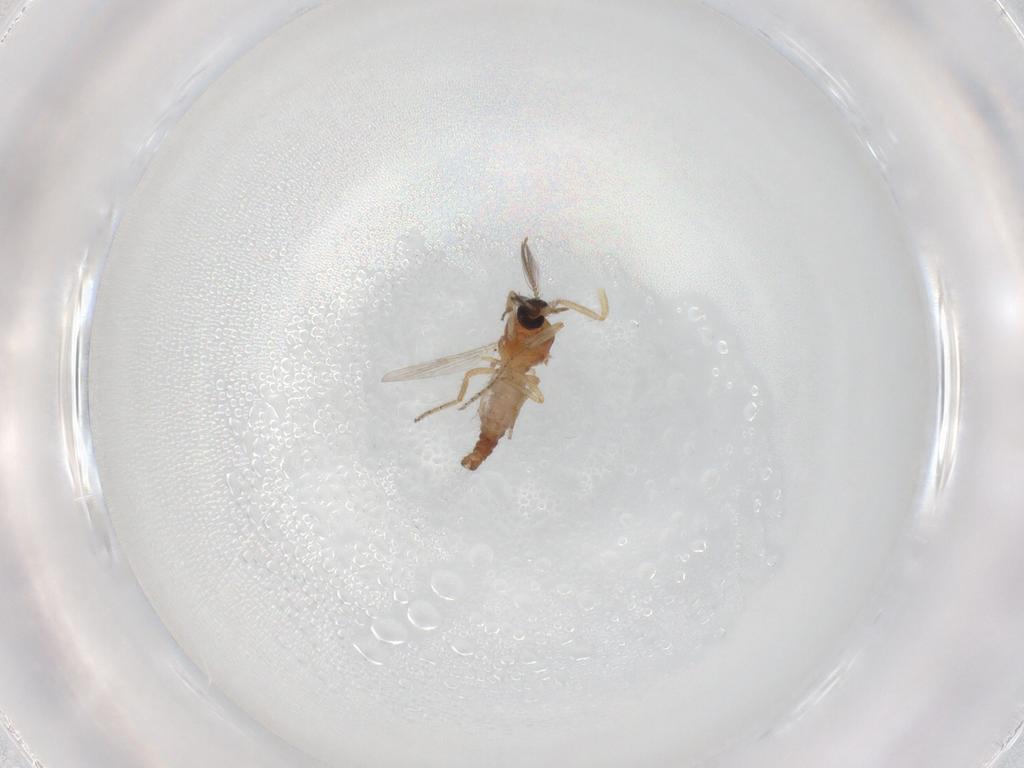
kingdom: Animalia
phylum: Arthropoda
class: Insecta
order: Diptera
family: Ceratopogonidae
